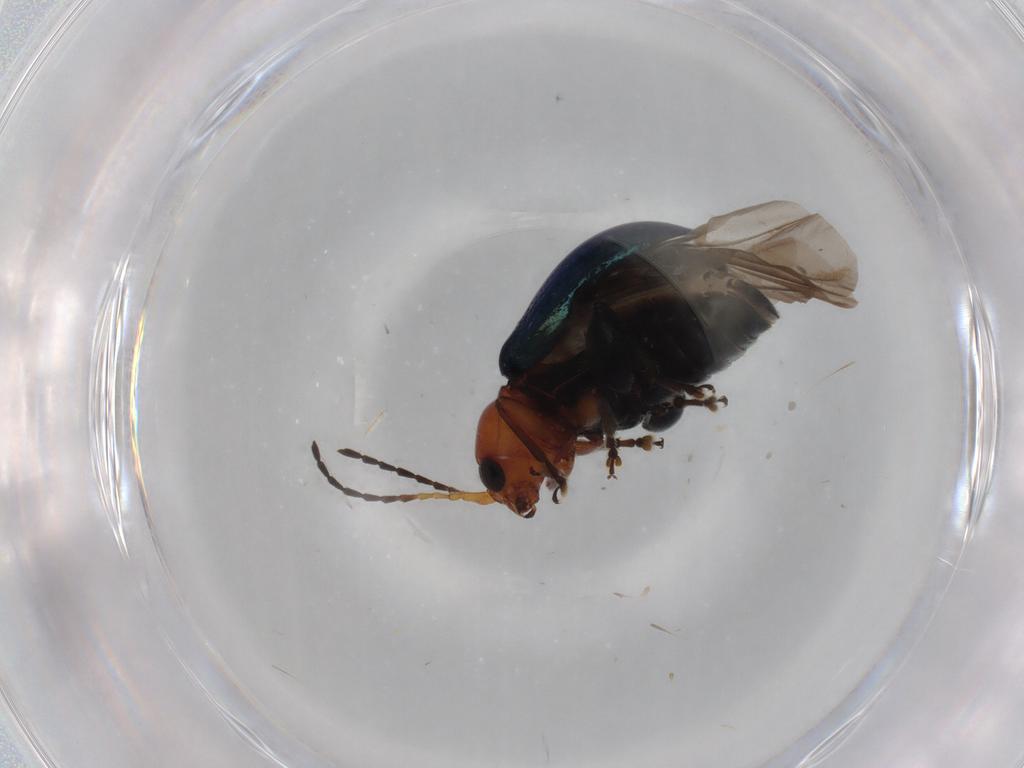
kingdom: Animalia
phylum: Arthropoda
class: Insecta
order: Coleoptera
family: Chrysomelidae
